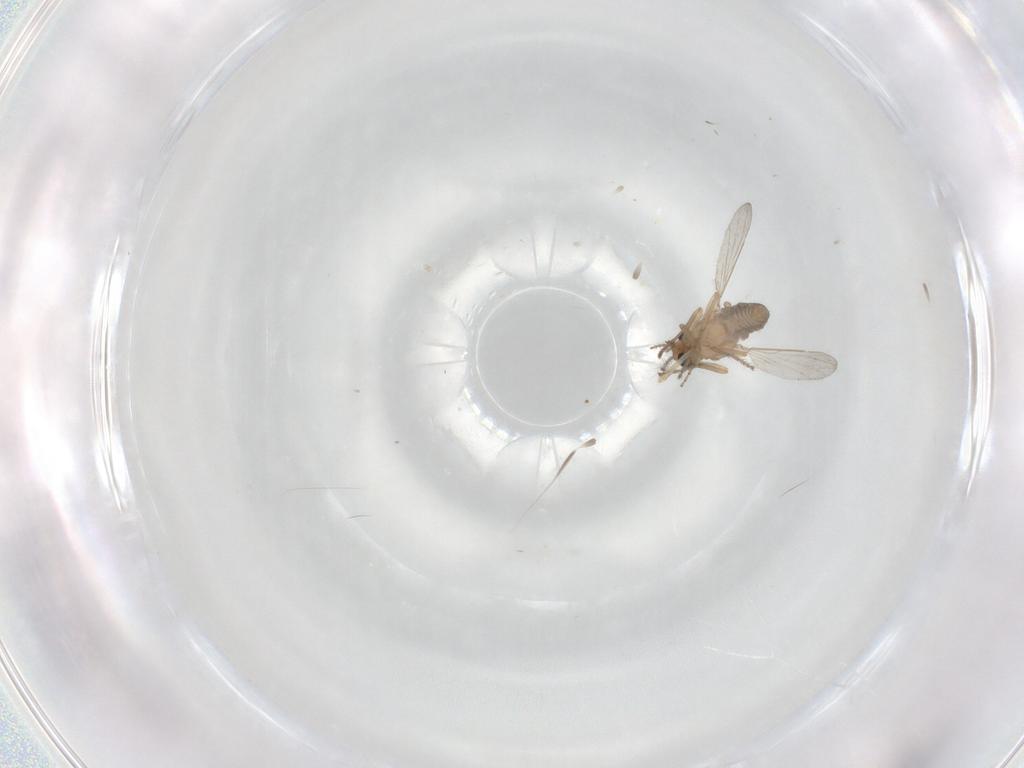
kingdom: Animalia
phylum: Arthropoda
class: Insecta
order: Diptera
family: Ceratopogonidae
